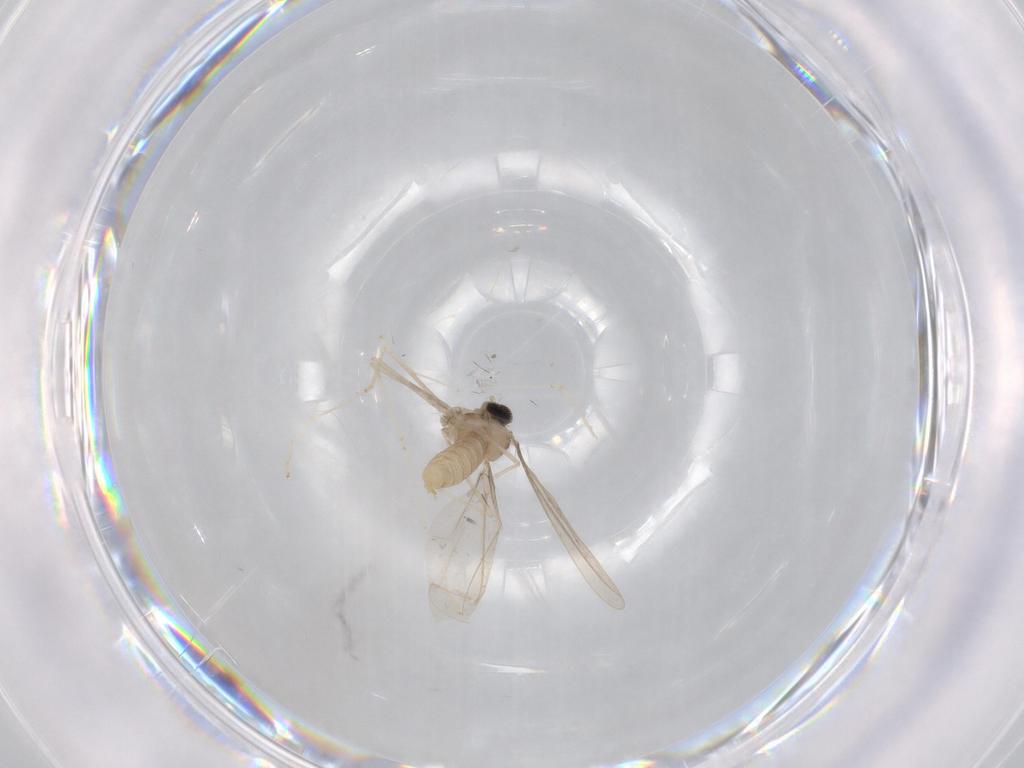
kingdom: Animalia
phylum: Arthropoda
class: Insecta
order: Diptera
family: Cecidomyiidae
